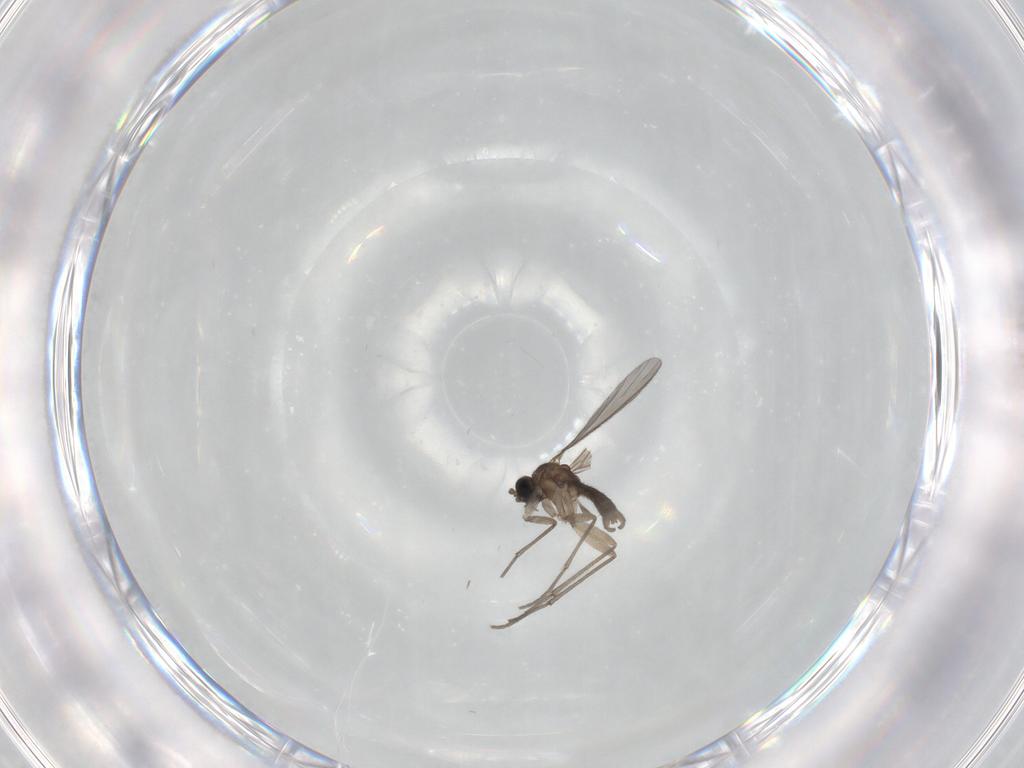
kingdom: Animalia
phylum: Arthropoda
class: Insecta
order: Diptera
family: Sciaridae
